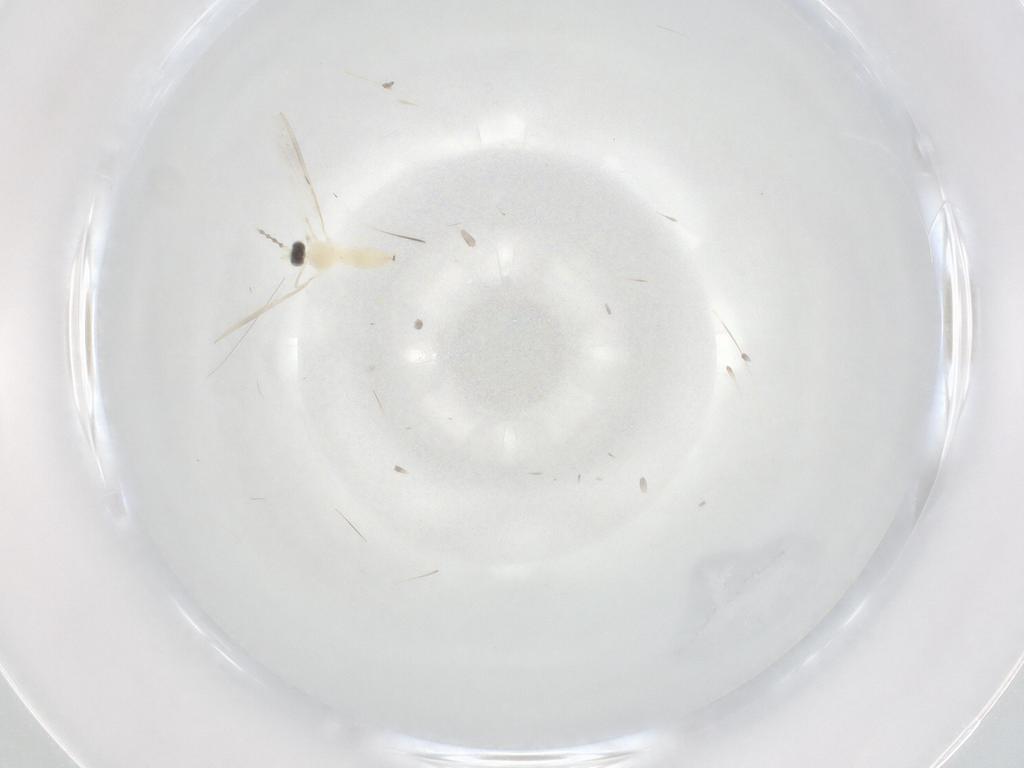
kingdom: Animalia
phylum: Arthropoda
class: Insecta
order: Diptera
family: Cecidomyiidae
